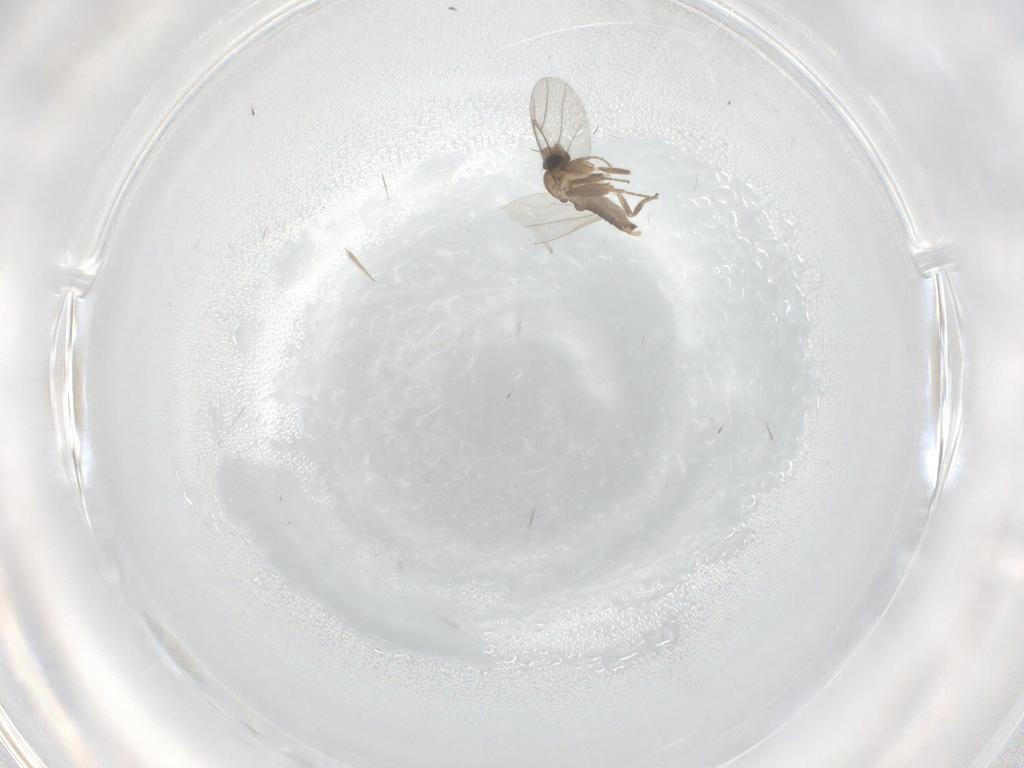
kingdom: Animalia
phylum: Arthropoda
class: Insecta
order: Diptera
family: Cecidomyiidae
